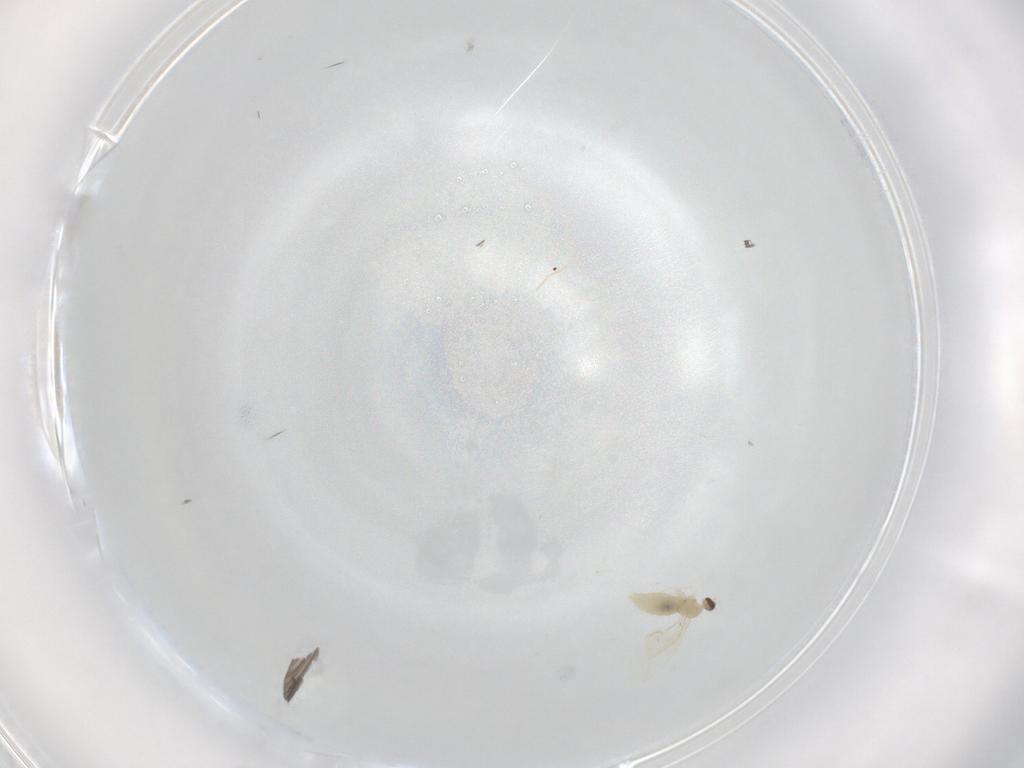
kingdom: Animalia
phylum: Arthropoda
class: Insecta
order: Diptera
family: Cecidomyiidae
